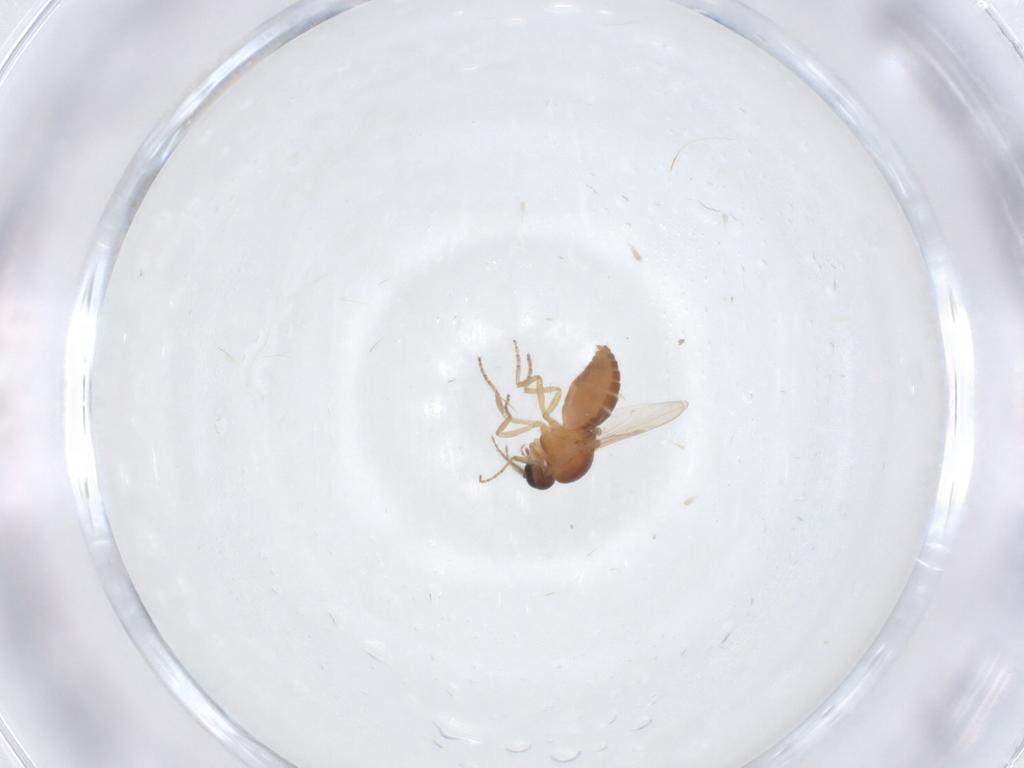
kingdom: Animalia
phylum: Arthropoda
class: Insecta
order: Diptera
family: Ceratopogonidae
